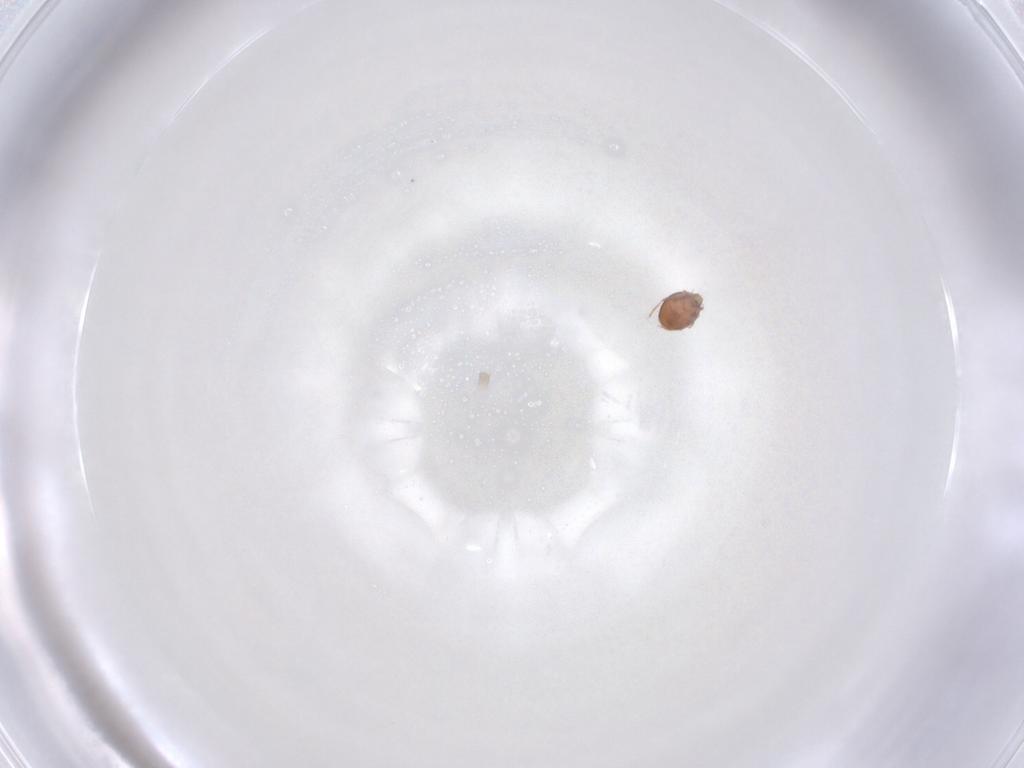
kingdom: Animalia
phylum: Arthropoda
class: Arachnida
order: Sarcoptiformes
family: Oribatulidae
